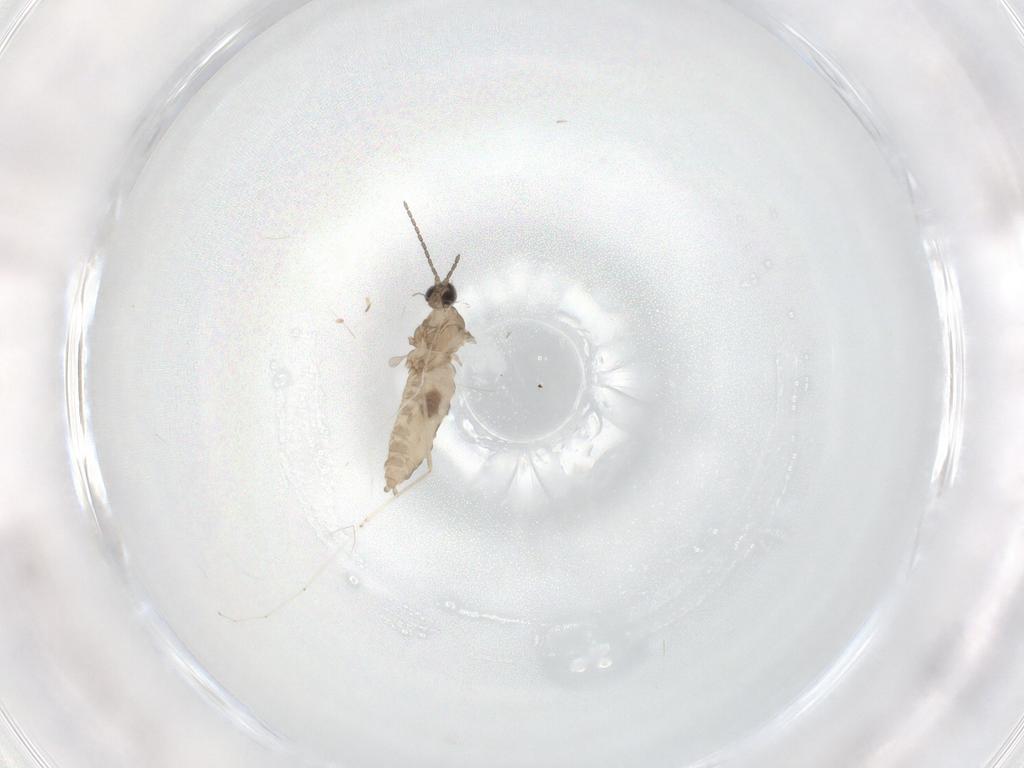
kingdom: Animalia
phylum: Arthropoda
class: Insecta
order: Diptera
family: Cecidomyiidae
